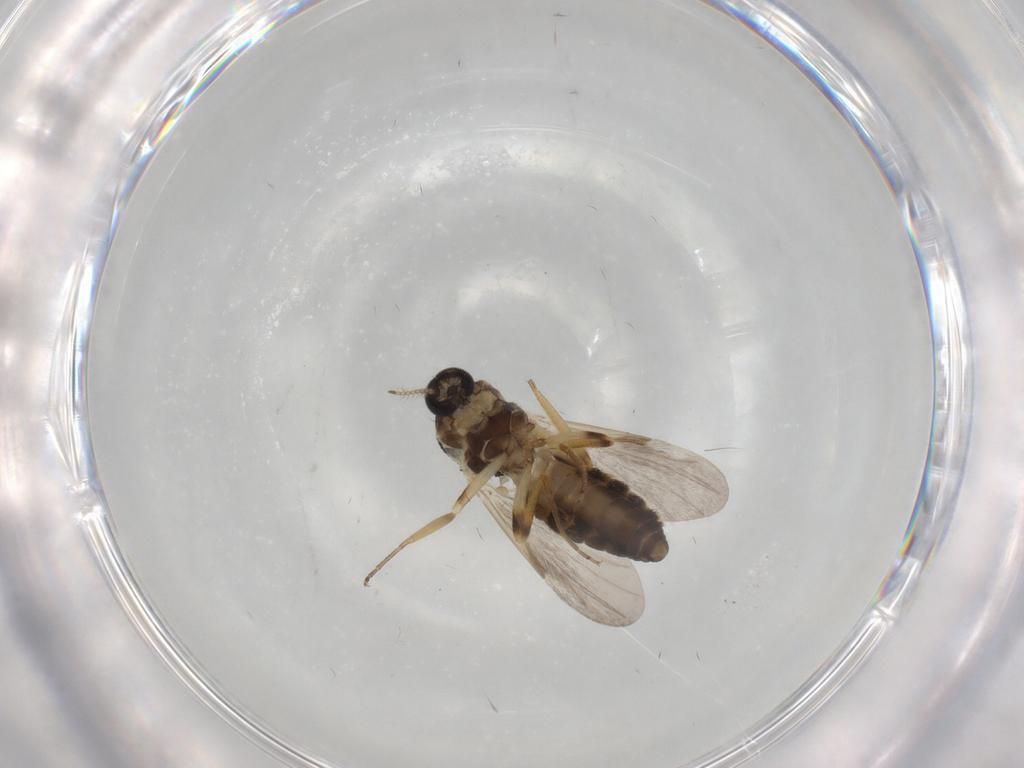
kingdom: Animalia
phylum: Arthropoda
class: Insecta
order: Diptera
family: Ceratopogonidae
